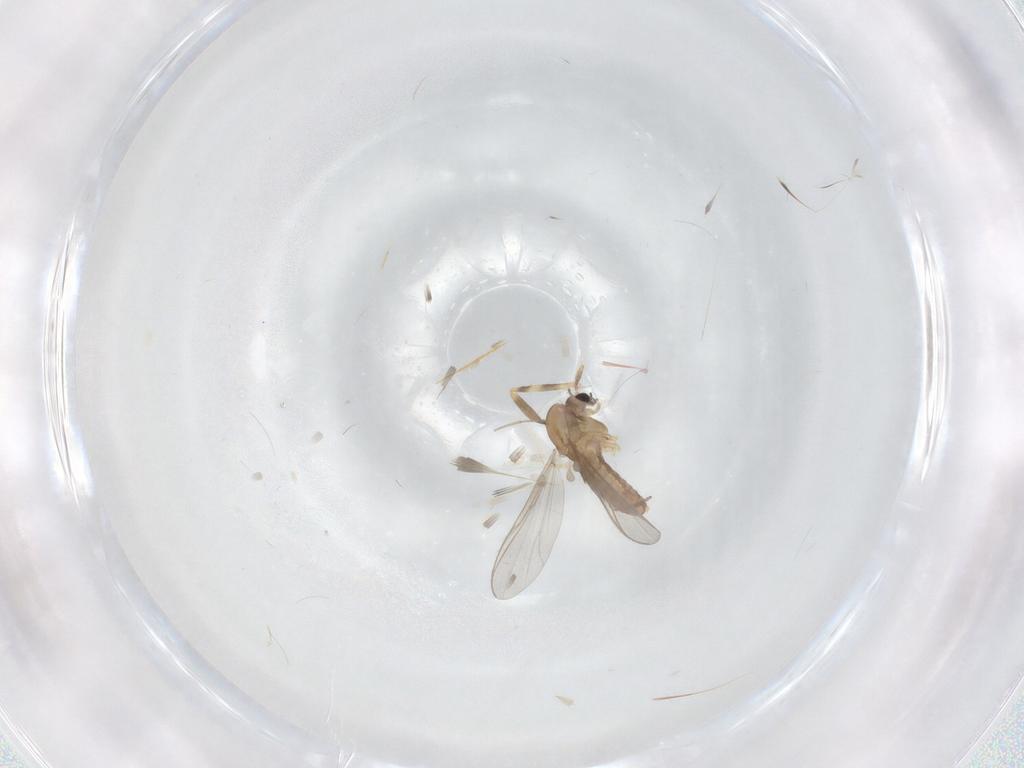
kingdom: Animalia
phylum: Arthropoda
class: Insecta
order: Diptera
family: Chironomidae
